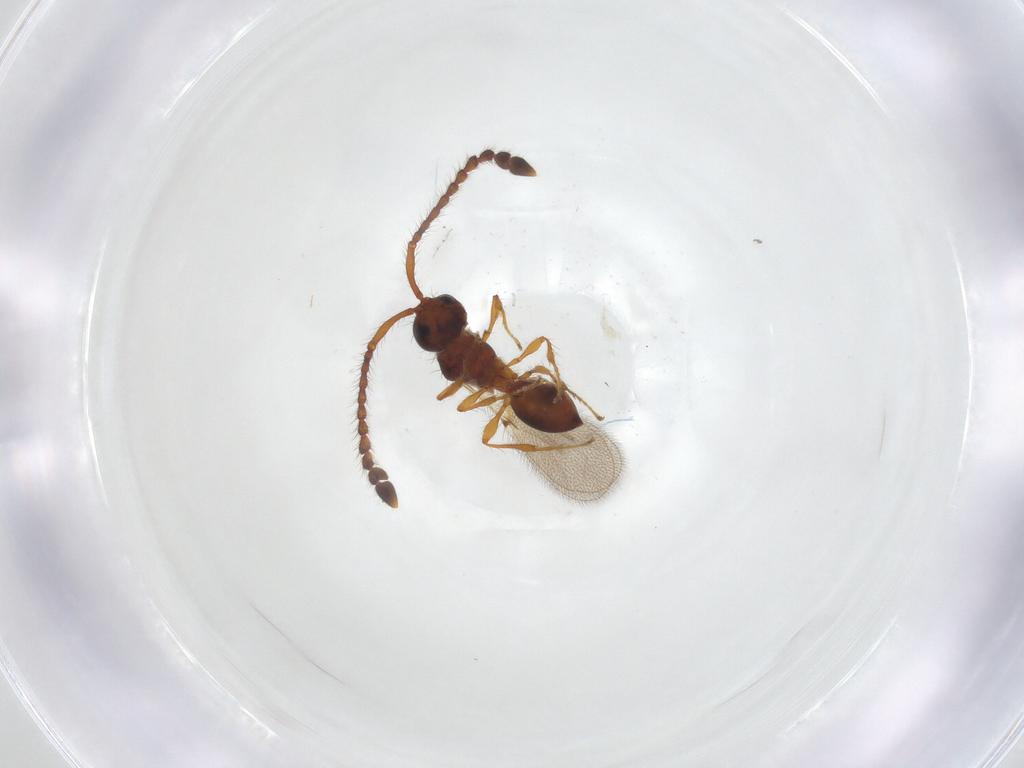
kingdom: Animalia
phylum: Arthropoda
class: Insecta
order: Hymenoptera
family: Diapriidae
